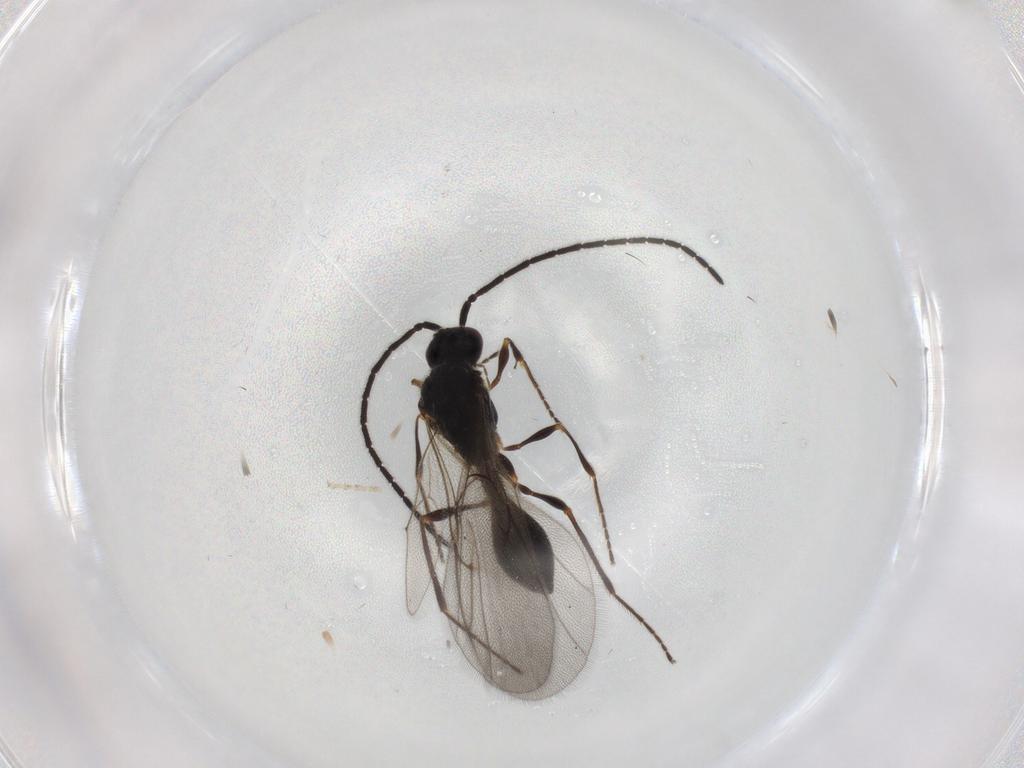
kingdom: Animalia
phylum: Arthropoda
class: Insecta
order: Hymenoptera
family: Diapriidae
